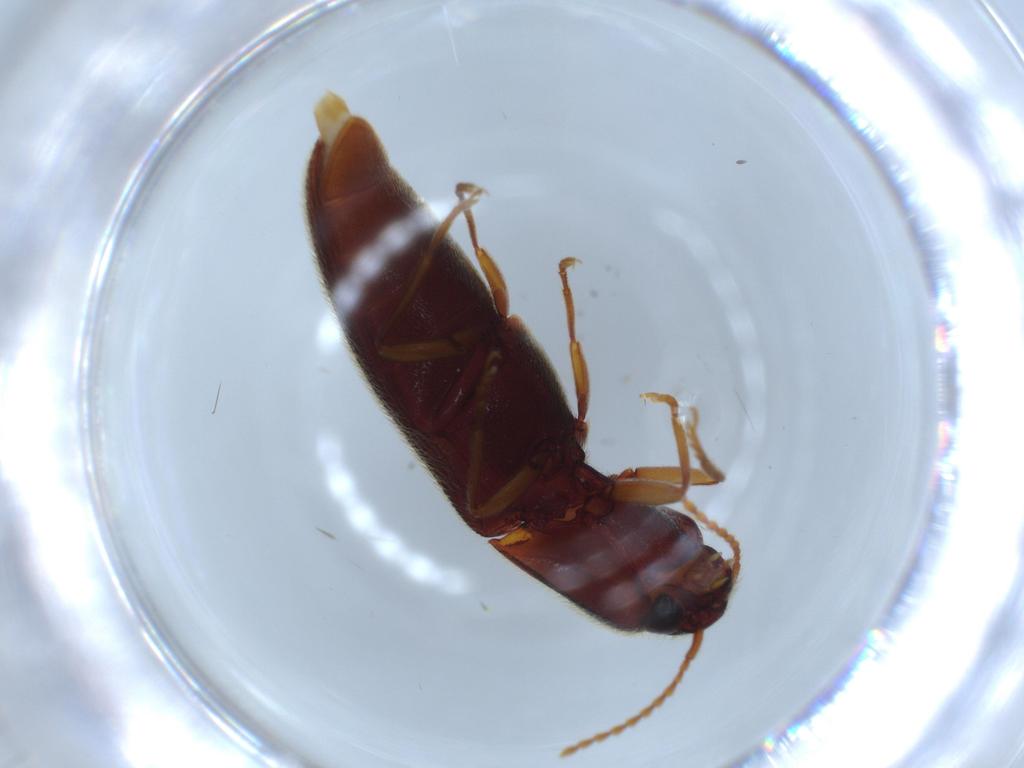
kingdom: Animalia
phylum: Arthropoda
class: Insecta
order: Coleoptera
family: Elateridae
